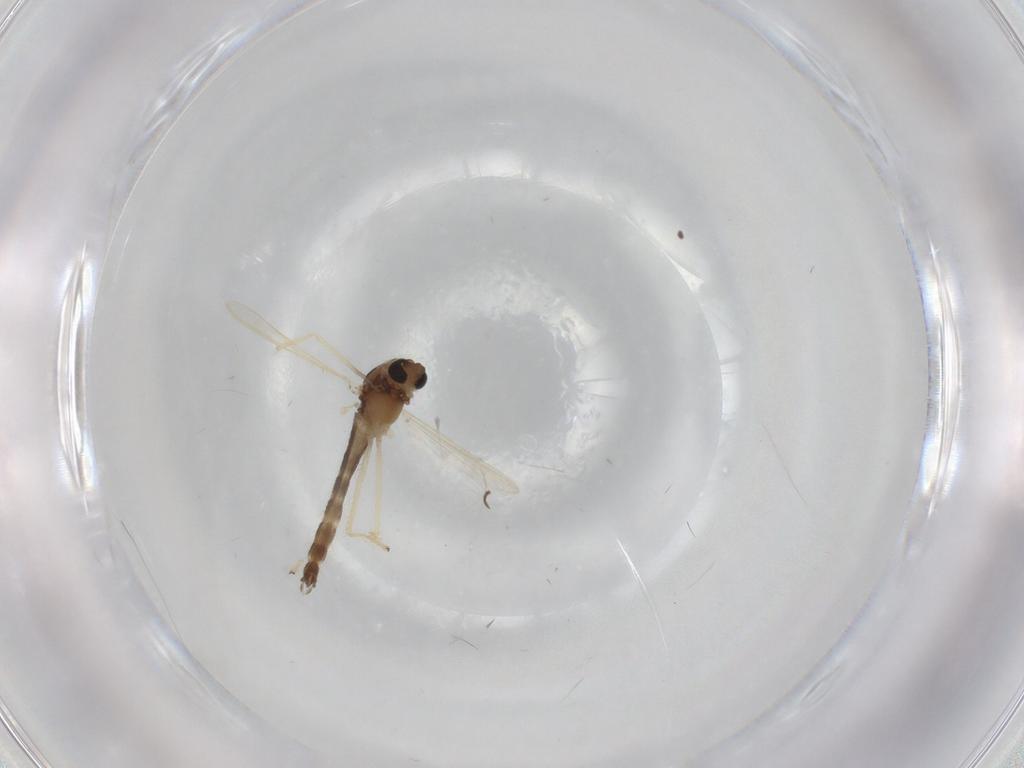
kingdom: Animalia
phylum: Arthropoda
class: Insecta
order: Diptera
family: Chironomidae
